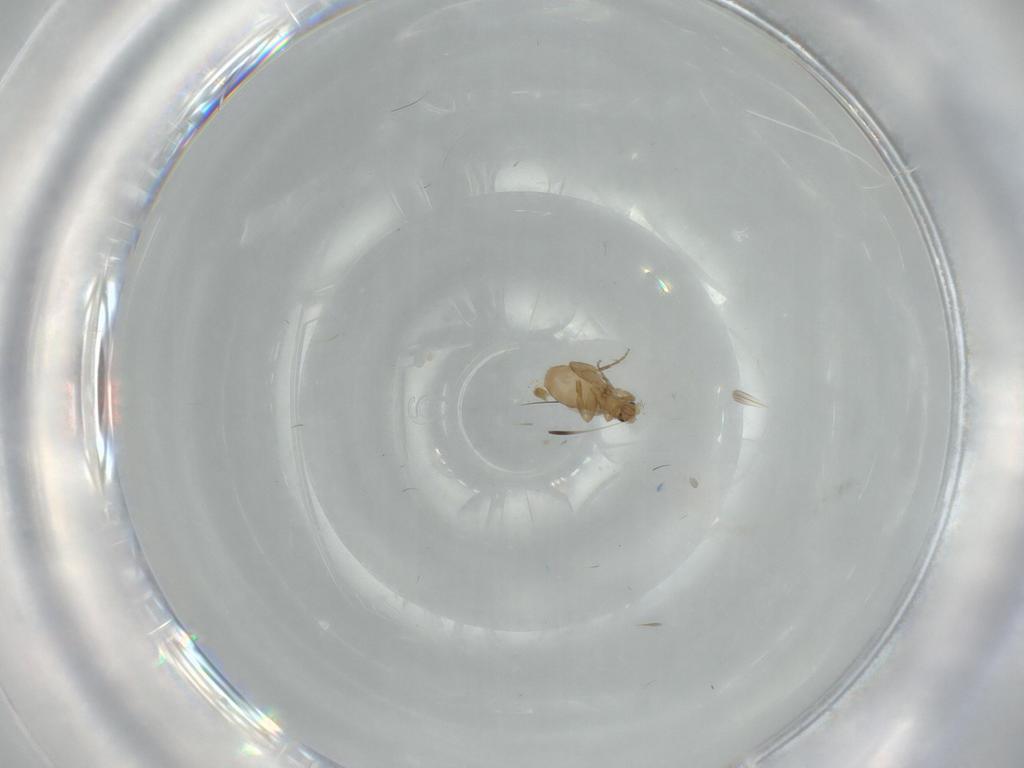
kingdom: Animalia
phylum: Arthropoda
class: Insecta
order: Diptera
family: Phoridae
